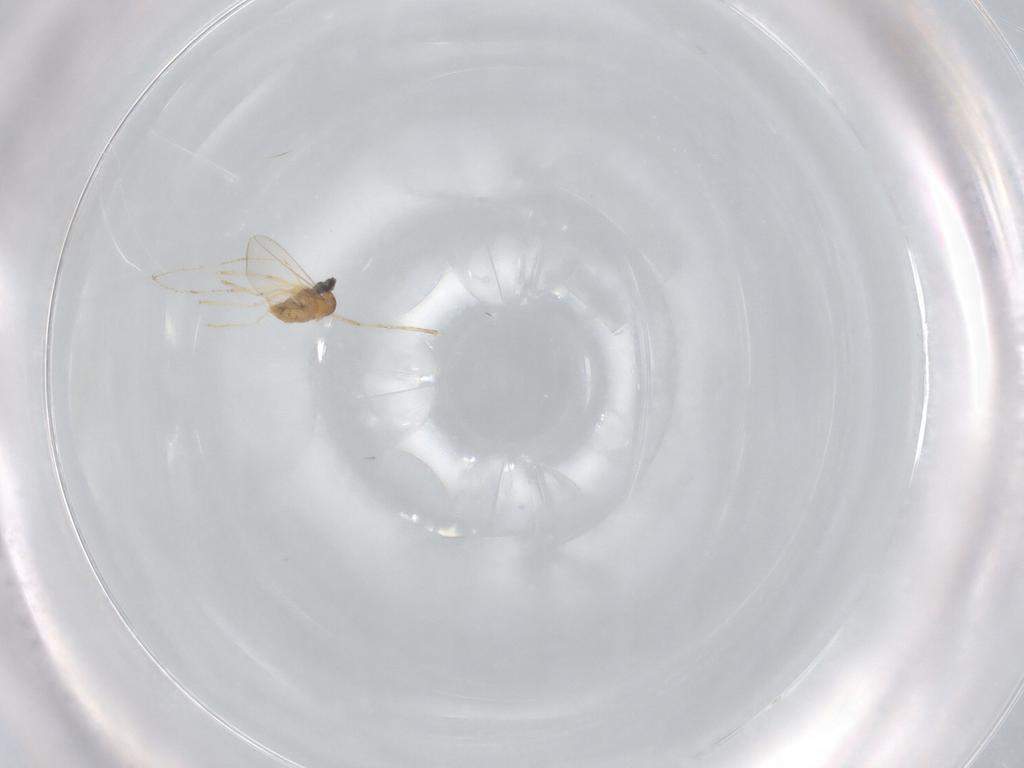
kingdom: Animalia
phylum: Arthropoda
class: Insecta
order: Diptera
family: Cecidomyiidae
